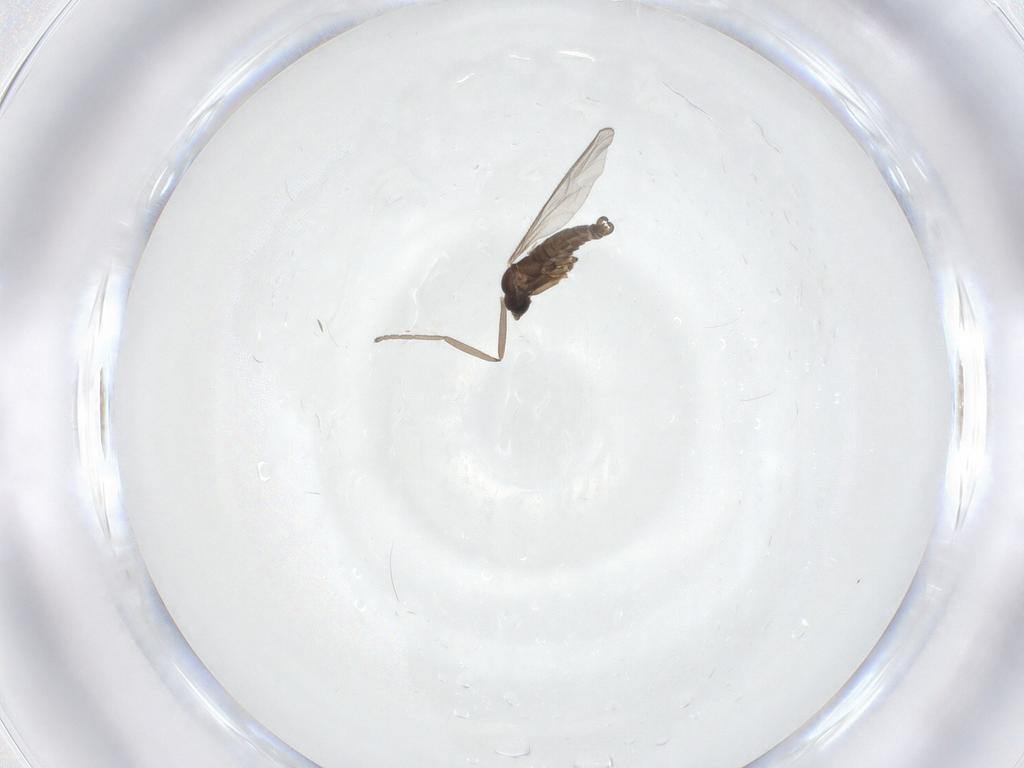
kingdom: Animalia
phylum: Arthropoda
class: Insecta
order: Diptera
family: Sciaridae
